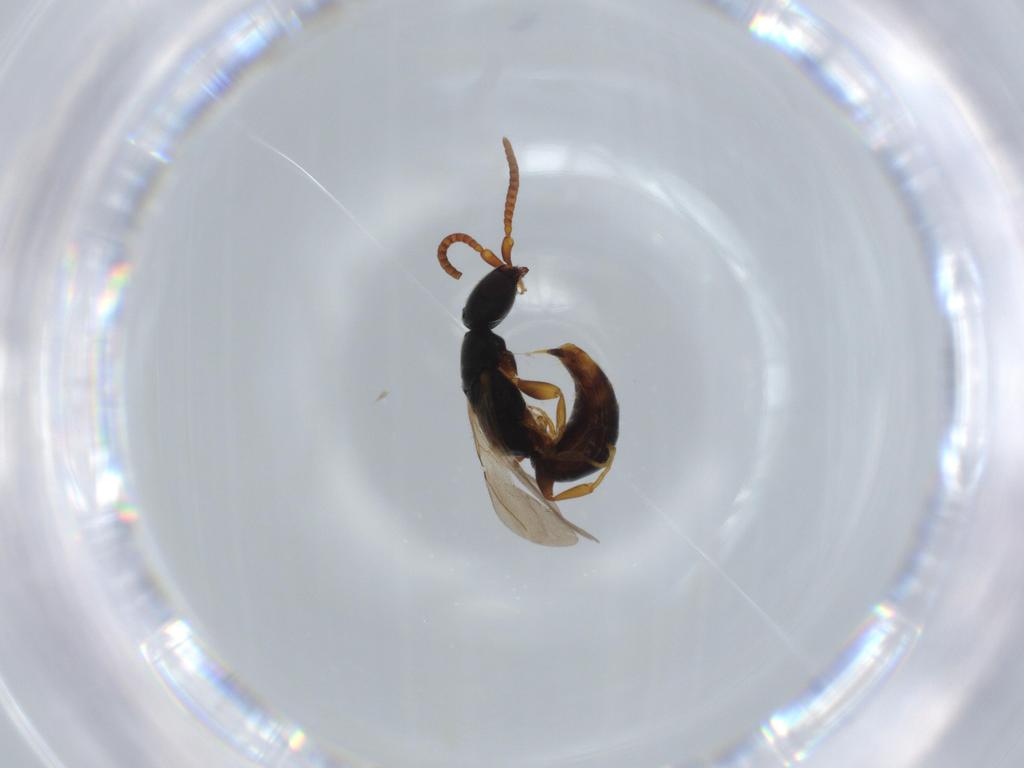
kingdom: Animalia
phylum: Arthropoda
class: Insecta
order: Hymenoptera
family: Bethylidae
